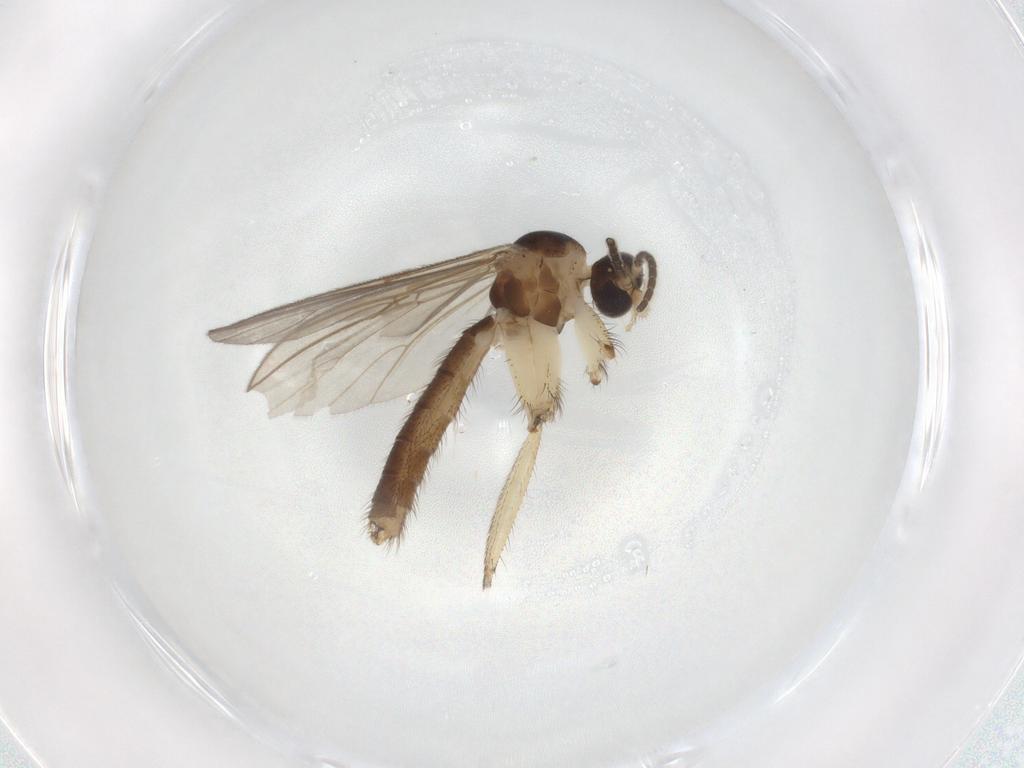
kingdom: Animalia
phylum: Arthropoda
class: Insecta
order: Diptera
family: Mycetophilidae
